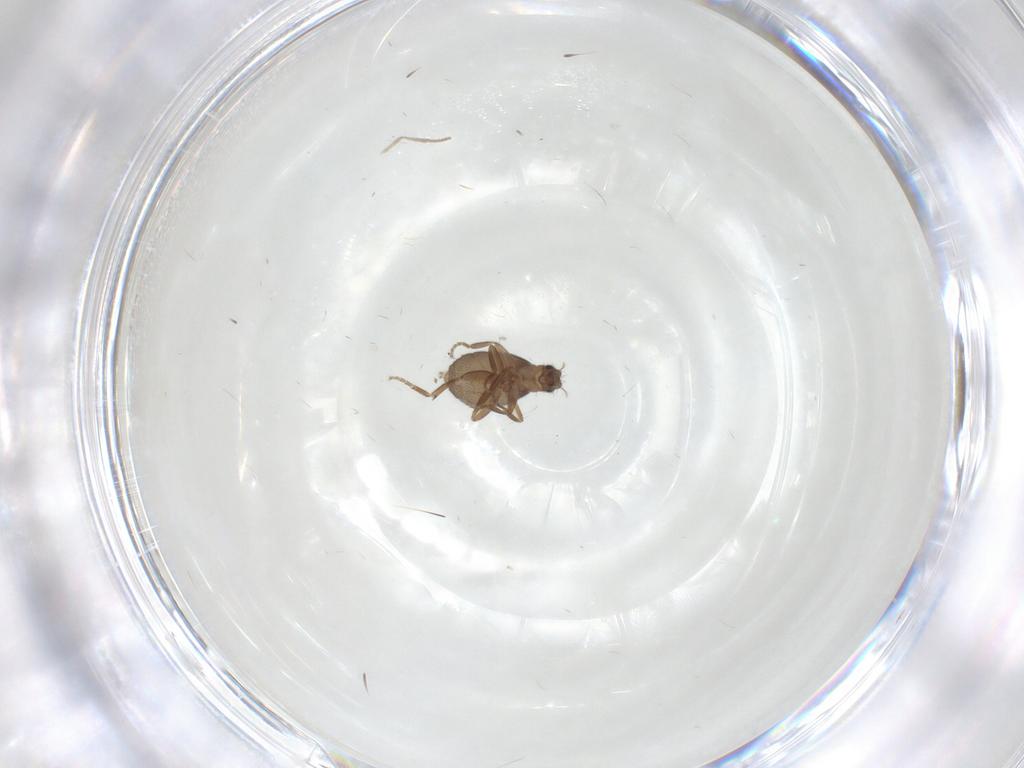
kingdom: Animalia
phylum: Arthropoda
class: Insecta
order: Diptera
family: Phoridae
